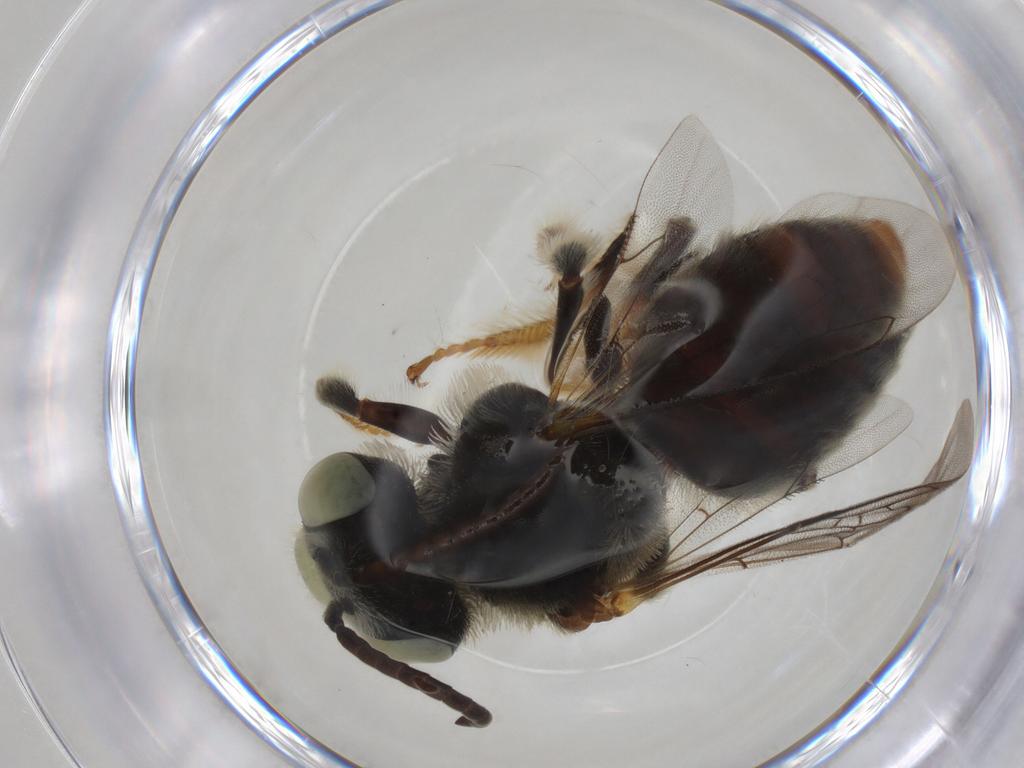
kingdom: Animalia
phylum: Arthropoda
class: Insecta
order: Hymenoptera
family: Apidae
